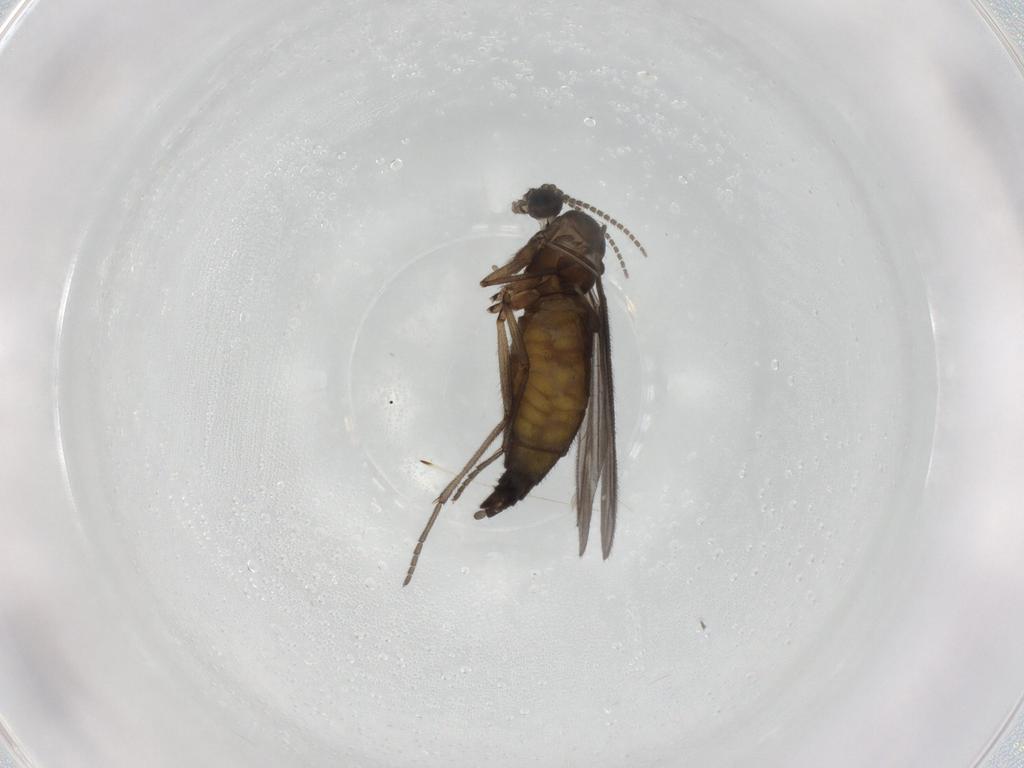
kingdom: Animalia
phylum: Arthropoda
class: Insecta
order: Diptera
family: Sciaridae
